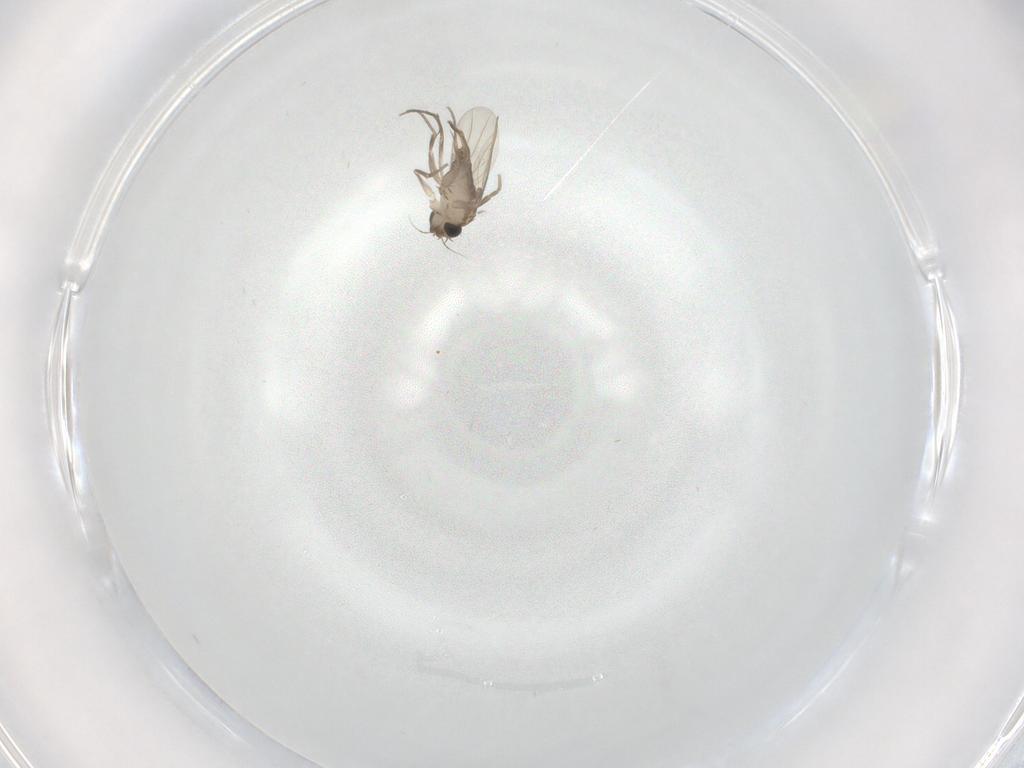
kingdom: Animalia
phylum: Arthropoda
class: Insecta
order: Diptera
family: Phoridae
